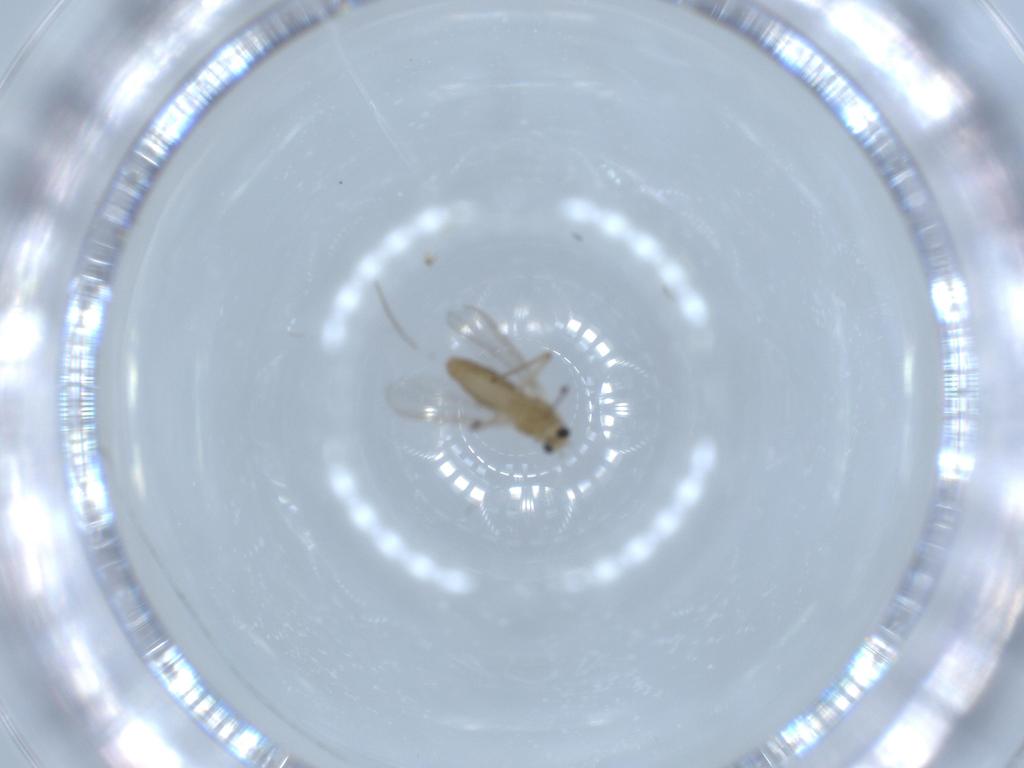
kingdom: Animalia
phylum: Arthropoda
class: Insecta
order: Diptera
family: Chironomidae
